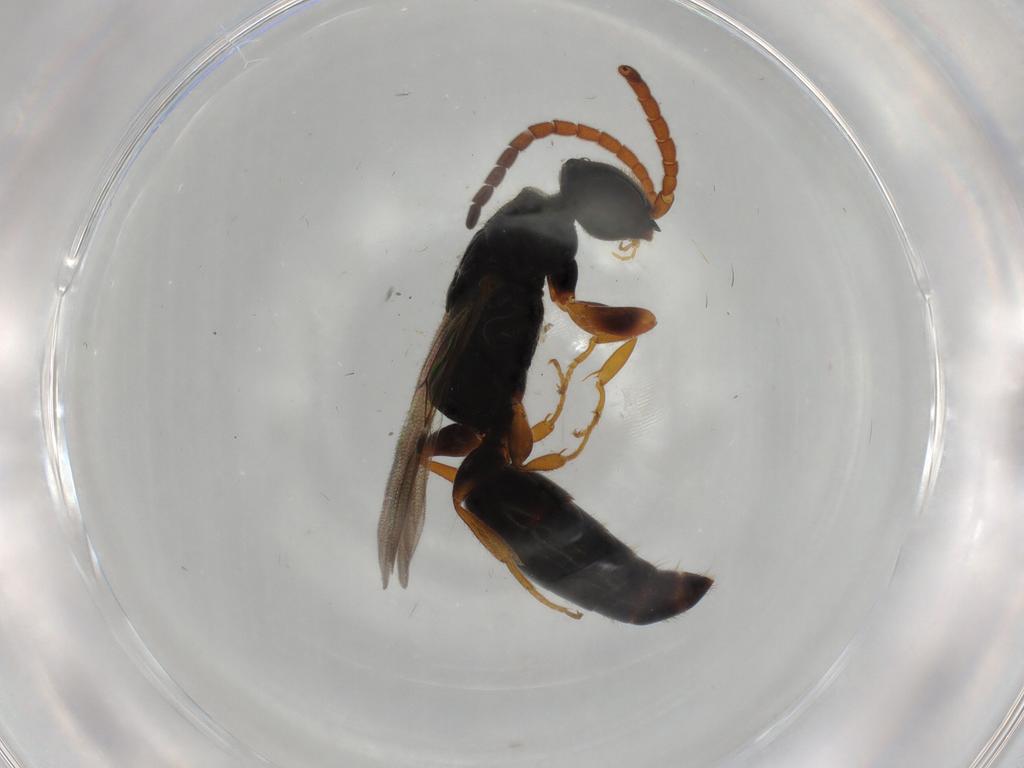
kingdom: Animalia
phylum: Arthropoda
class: Insecta
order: Hymenoptera
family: Bethylidae
